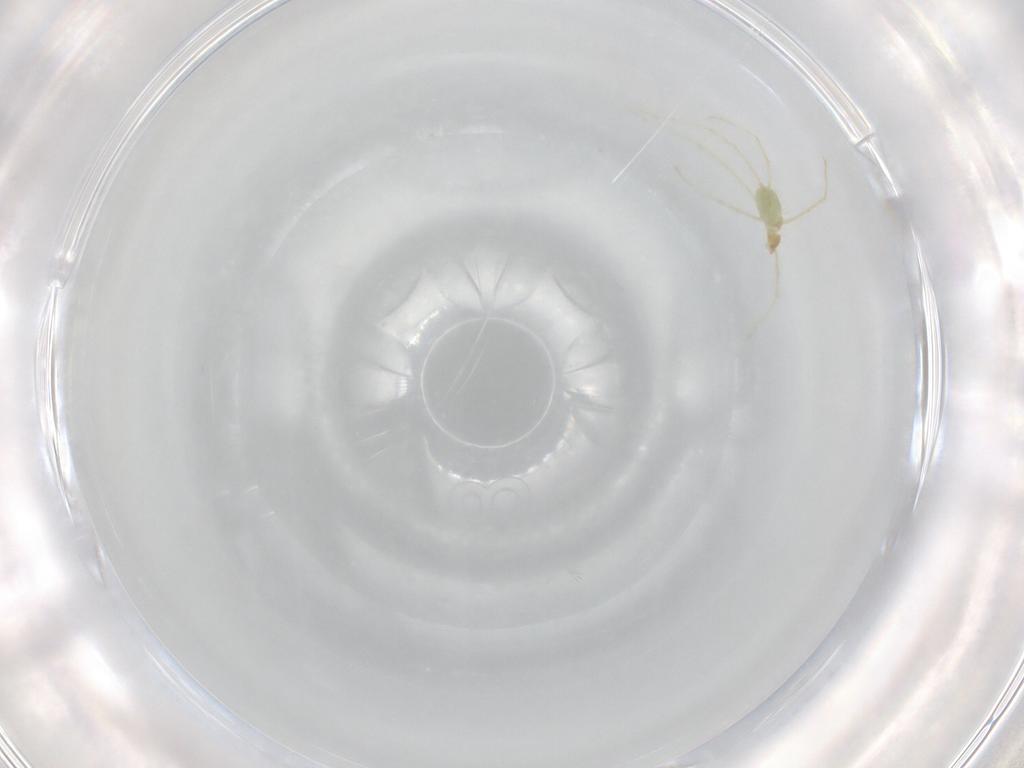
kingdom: Animalia
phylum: Arthropoda
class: Arachnida
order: Trombidiformes
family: Erythraeidae
